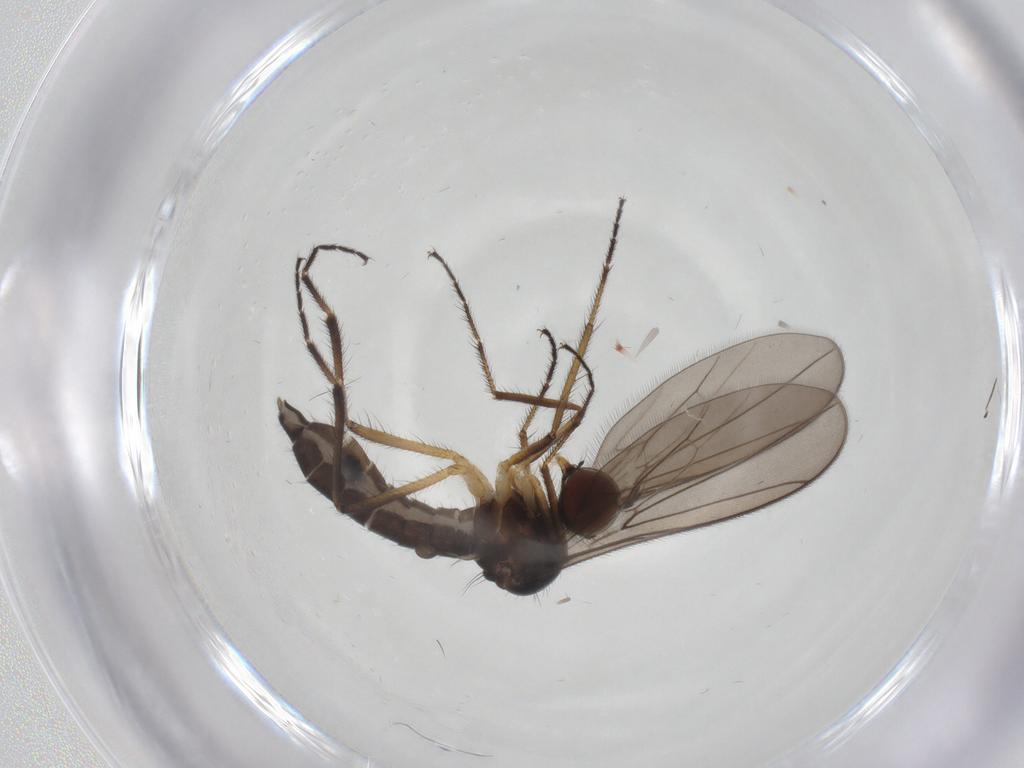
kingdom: Animalia
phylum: Arthropoda
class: Insecta
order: Diptera
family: Hybotidae
